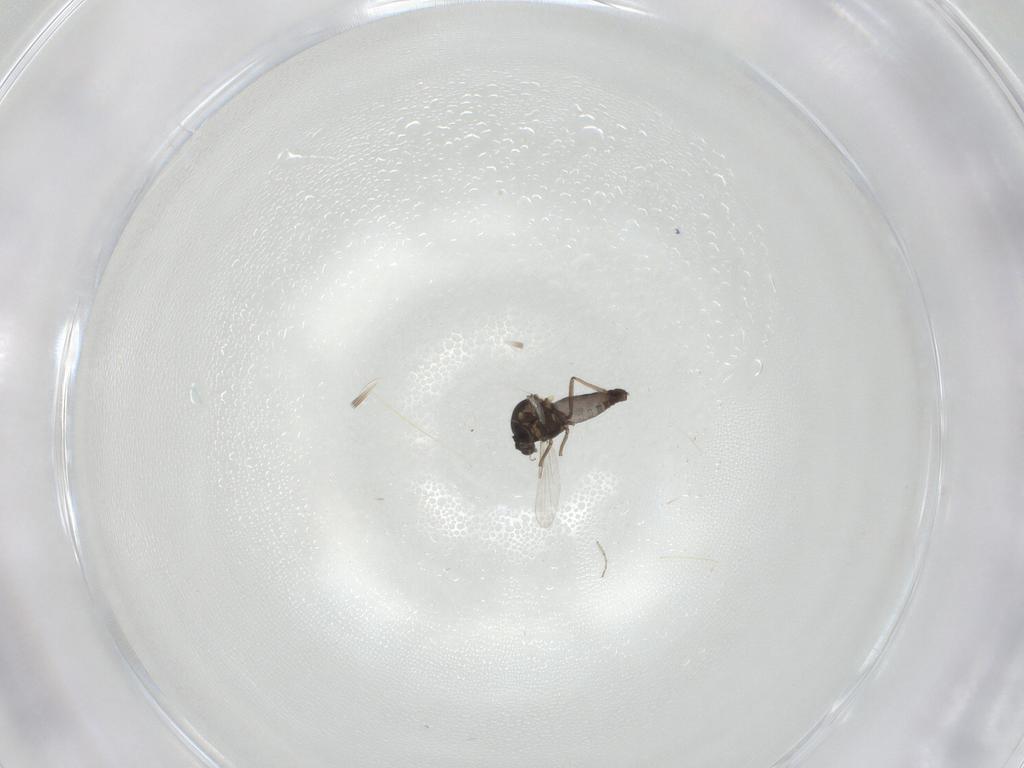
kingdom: Animalia
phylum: Arthropoda
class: Insecta
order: Diptera
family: Ceratopogonidae
